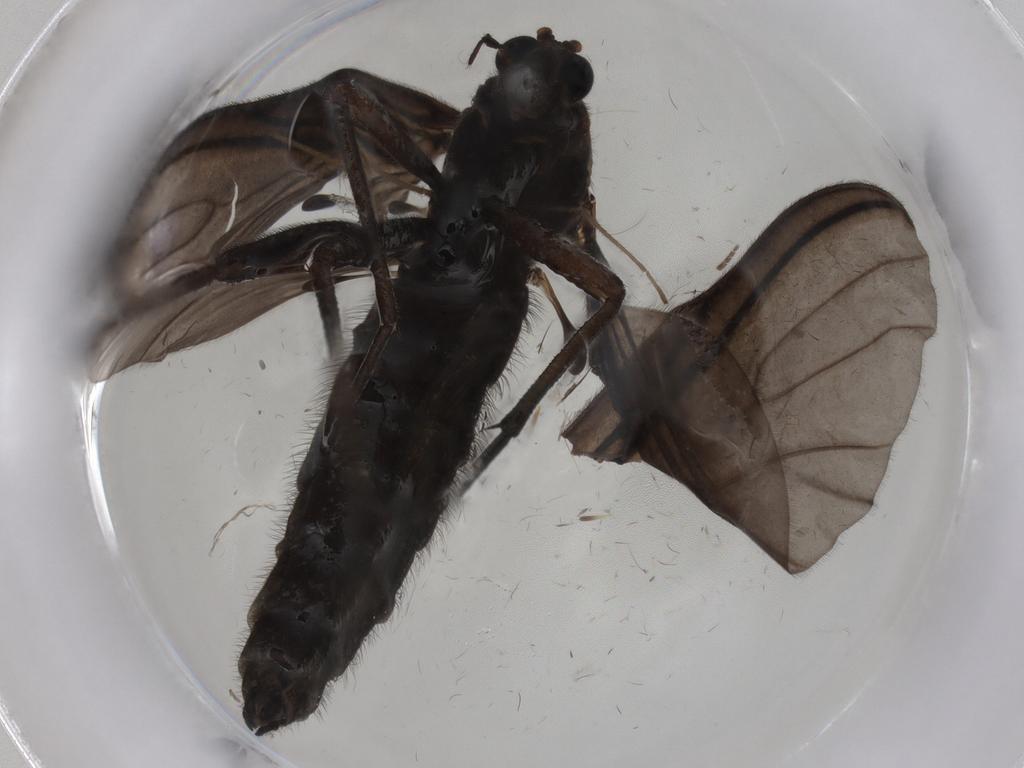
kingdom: Animalia
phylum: Arthropoda
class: Insecta
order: Diptera
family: Chironomidae
